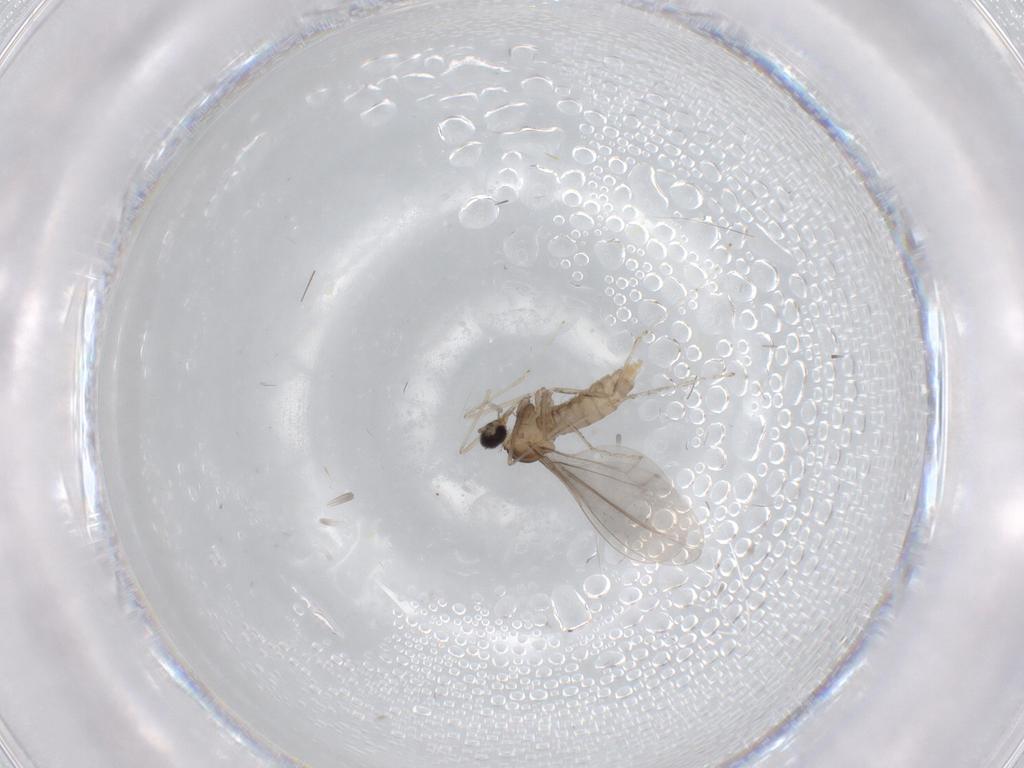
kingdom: Animalia
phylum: Arthropoda
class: Insecta
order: Diptera
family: Cecidomyiidae
